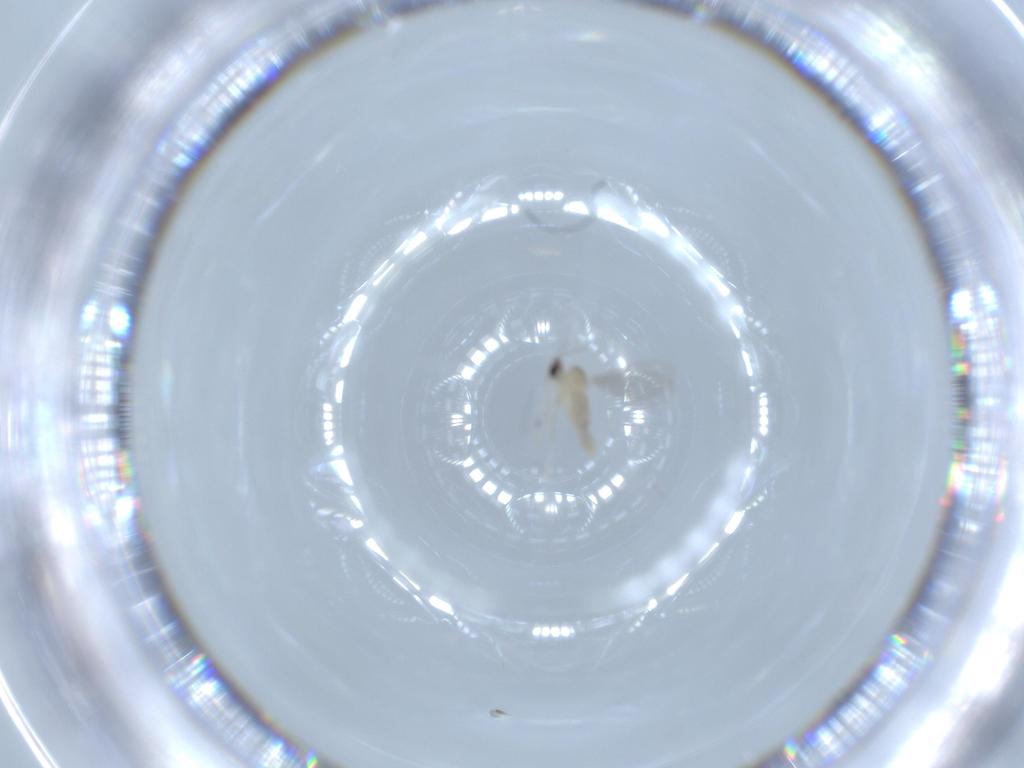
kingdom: Animalia
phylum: Arthropoda
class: Insecta
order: Diptera
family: Cecidomyiidae
